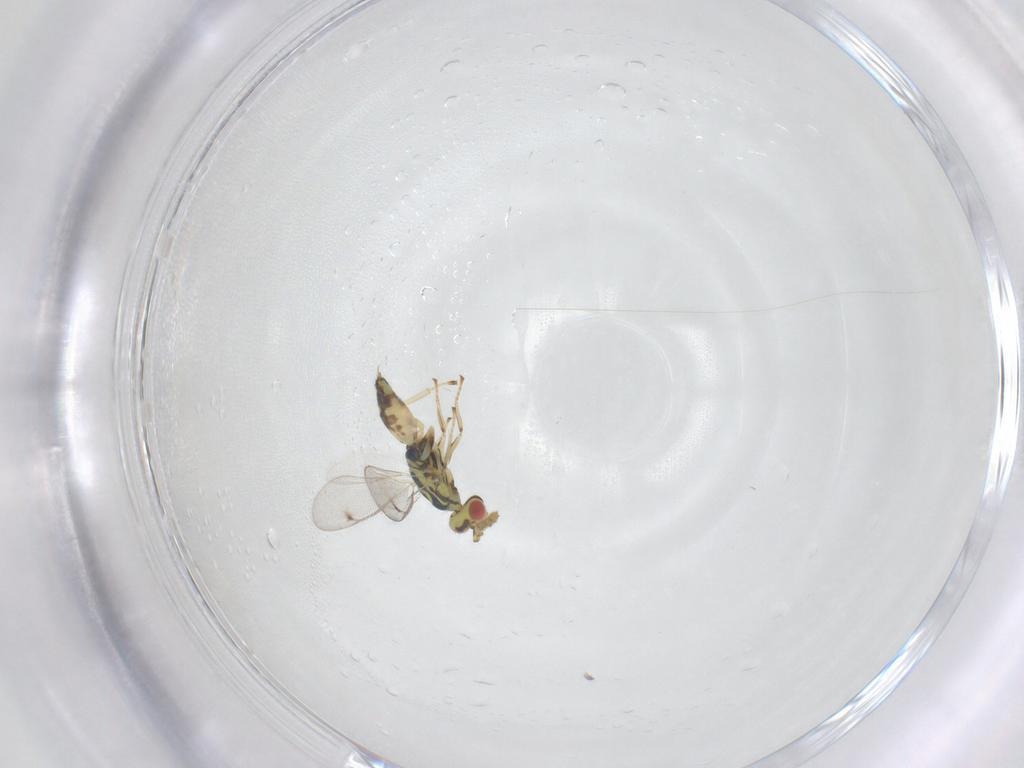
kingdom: Animalia
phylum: Arthropoda
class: Insecta
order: Hymenoptera
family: Eulophidae
